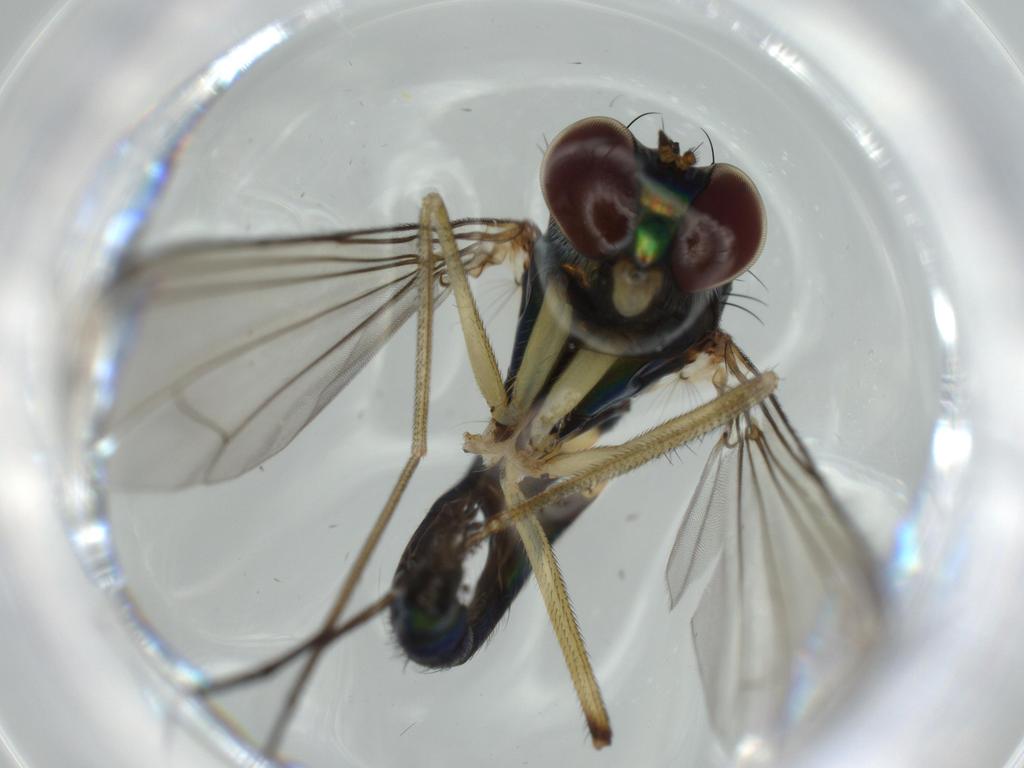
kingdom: Animalia
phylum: Arthropoda
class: Insecta
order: Diptera
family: Dolichopodidae
